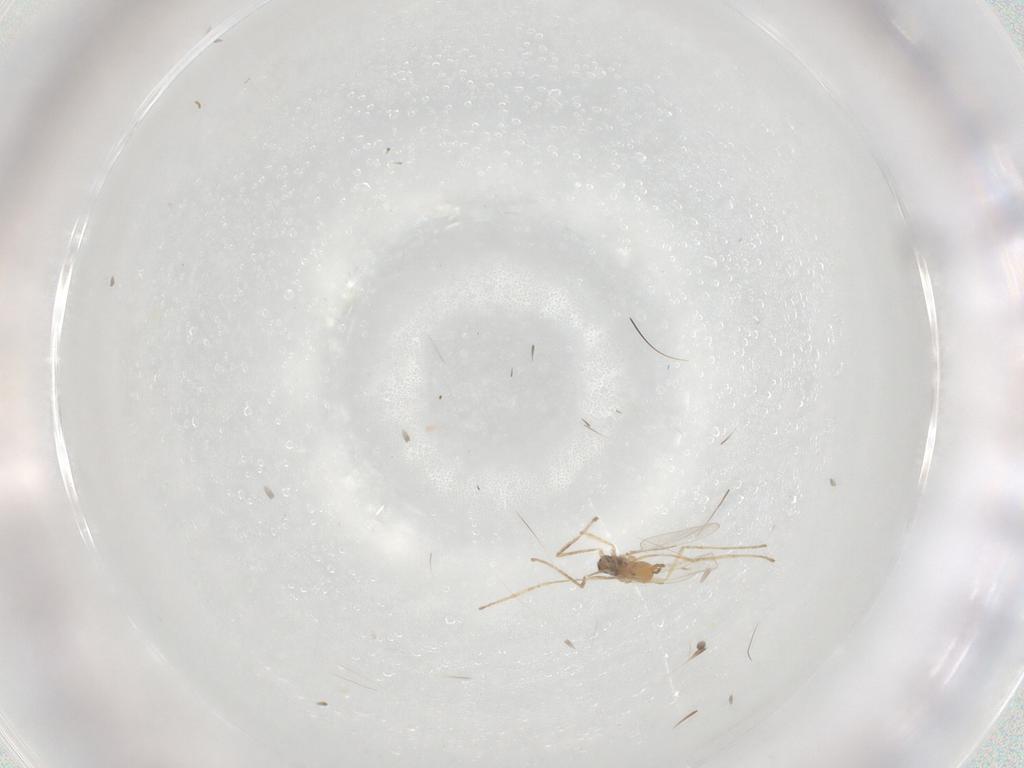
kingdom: Animalia
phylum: Arthropoda
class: Insecta
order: Diptera
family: Cecidomyiidae
